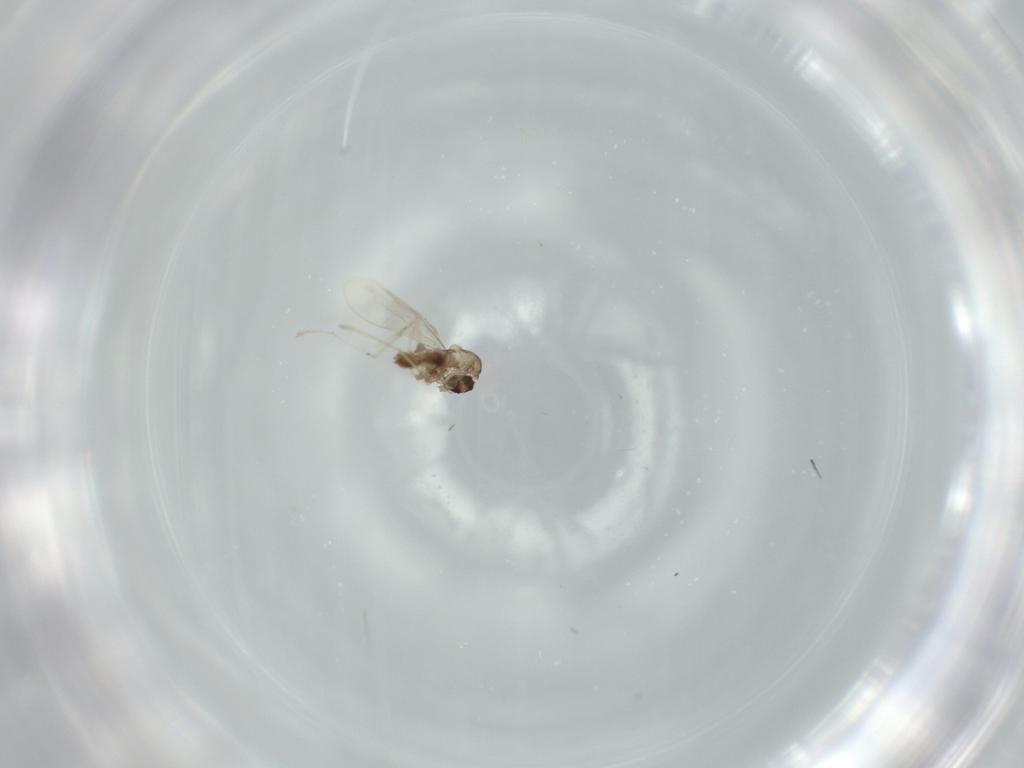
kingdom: Animalia
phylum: Arthropoda
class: Insecta
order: Diptera
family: Cecidomyiidae
